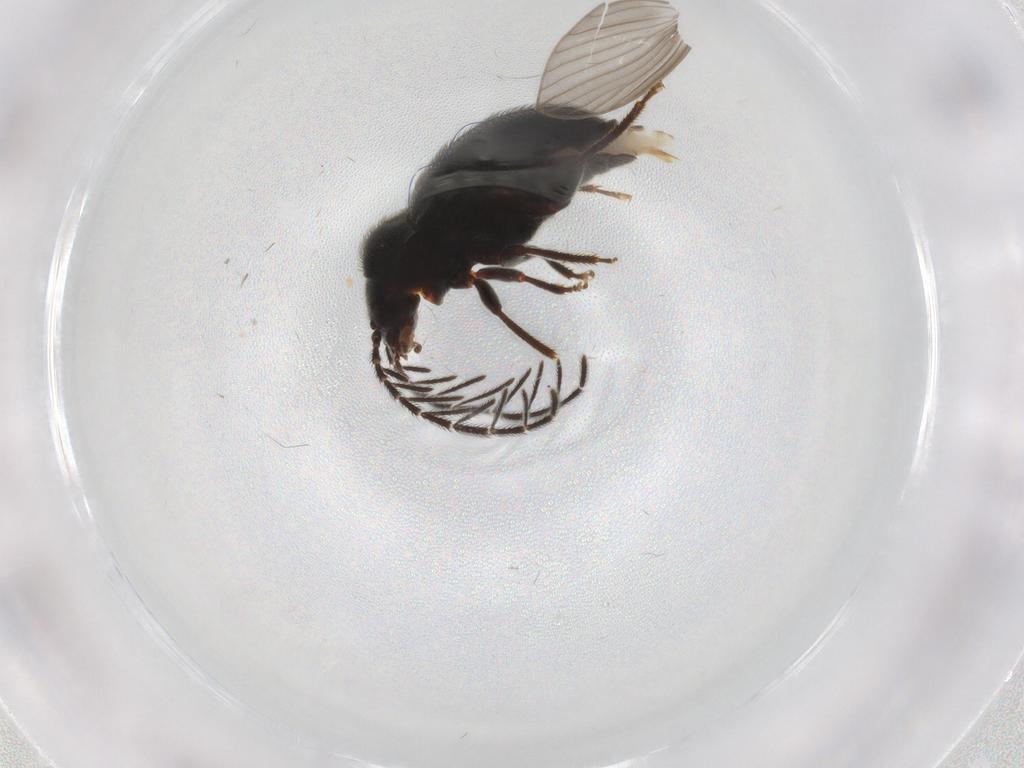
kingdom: Animalia
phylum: Arthropoda
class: Insecta
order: Coleoptera
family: Ptilodactylidae
